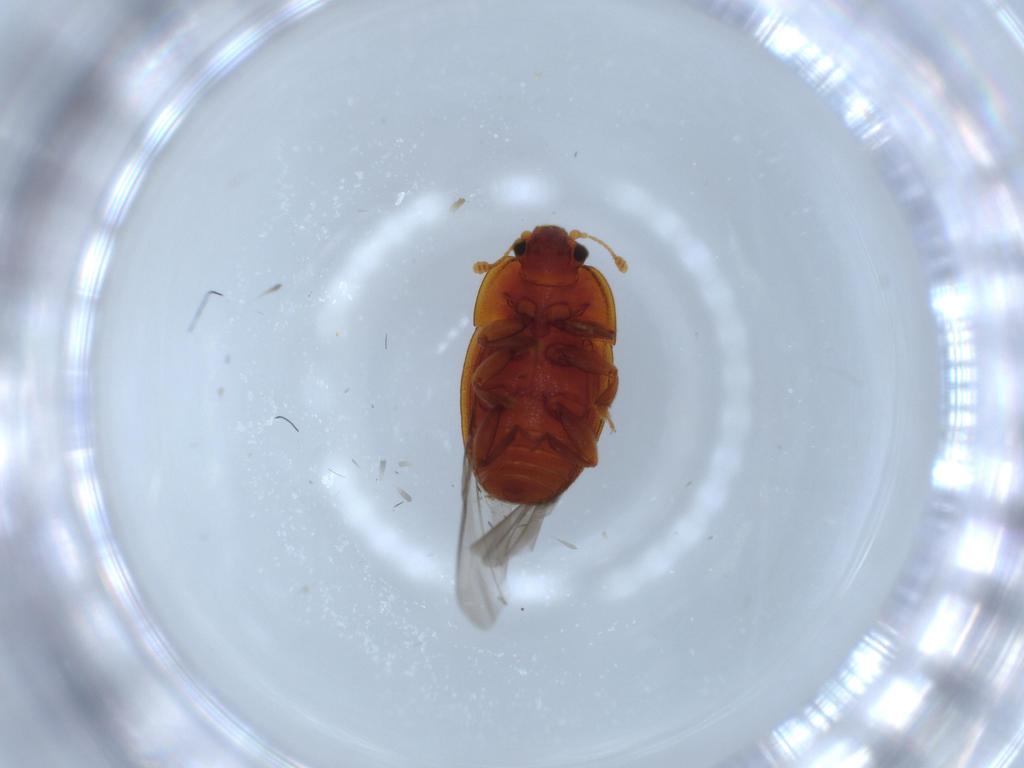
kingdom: Animalia
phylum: Arthropoda
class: Insecta
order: Coleoptera
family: Nitidulidae
